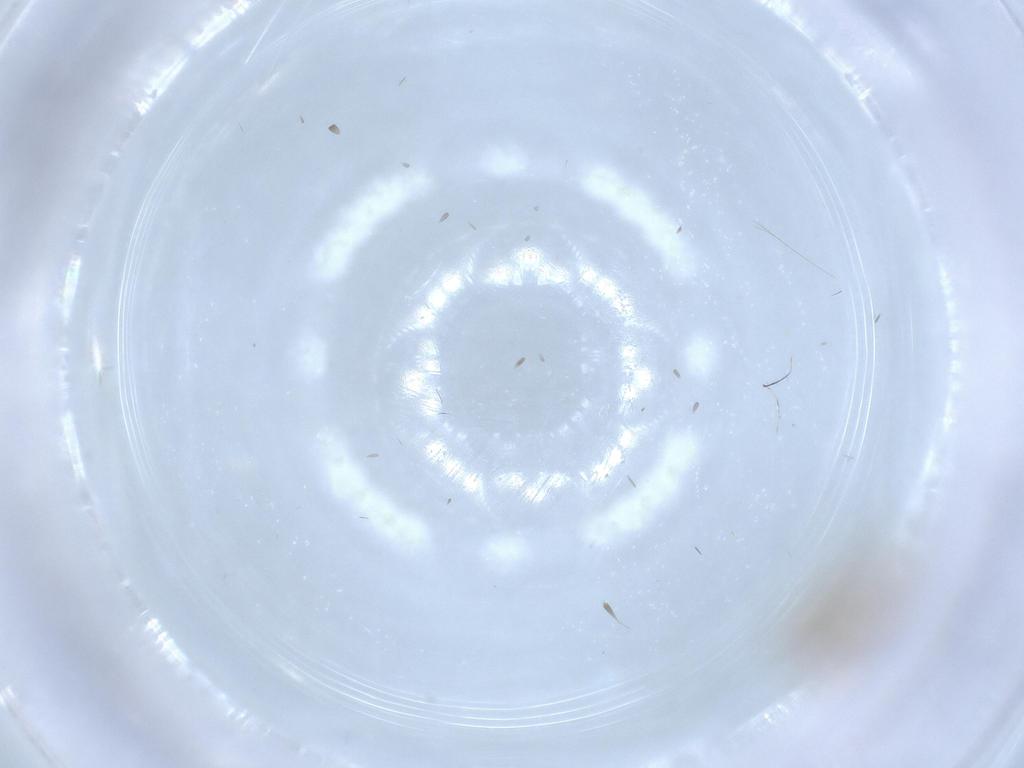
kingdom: Animalia
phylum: Arthropoda
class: Insecta
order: Psocodea
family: Ectopsocidae
